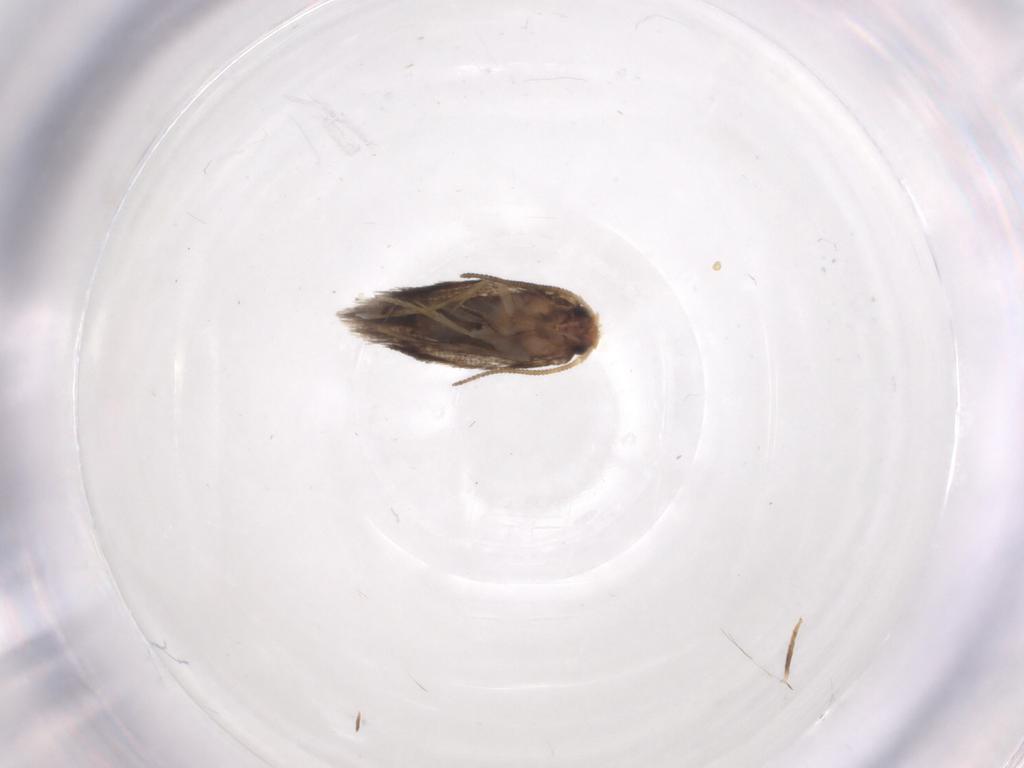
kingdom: Animalia
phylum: Arthropoda
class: Insecta
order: Lepidoptera
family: Nepticulidae
